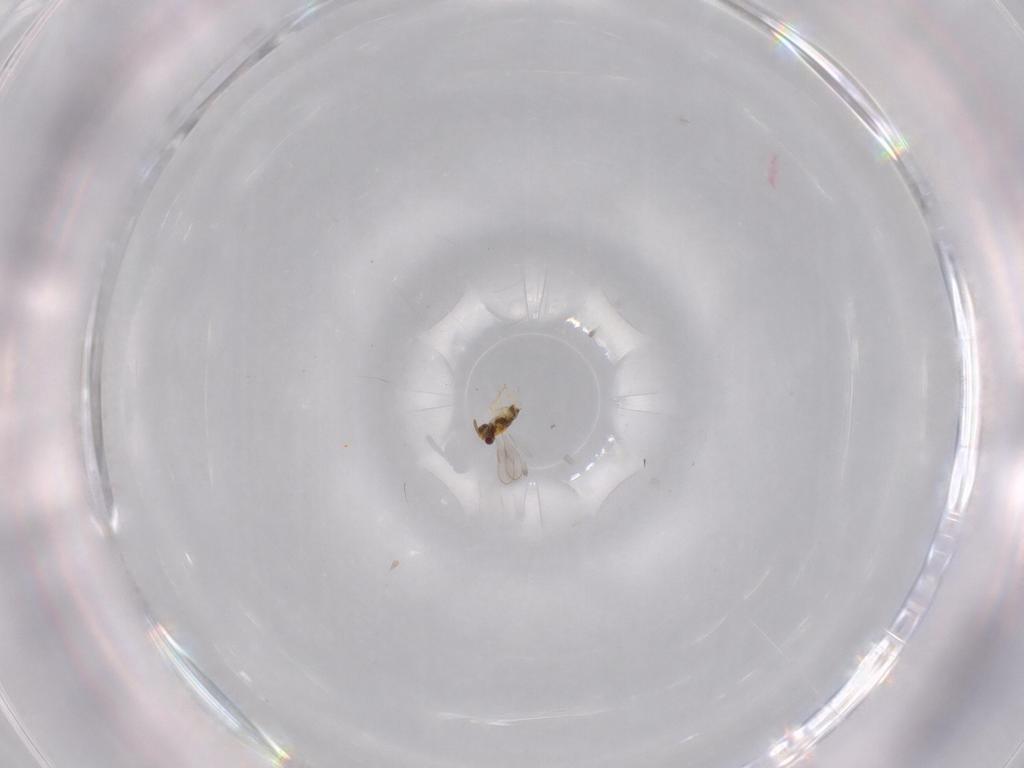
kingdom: Animalia
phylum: Arthropoda
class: Insecta
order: Hymenoptera
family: Aphelinidae
